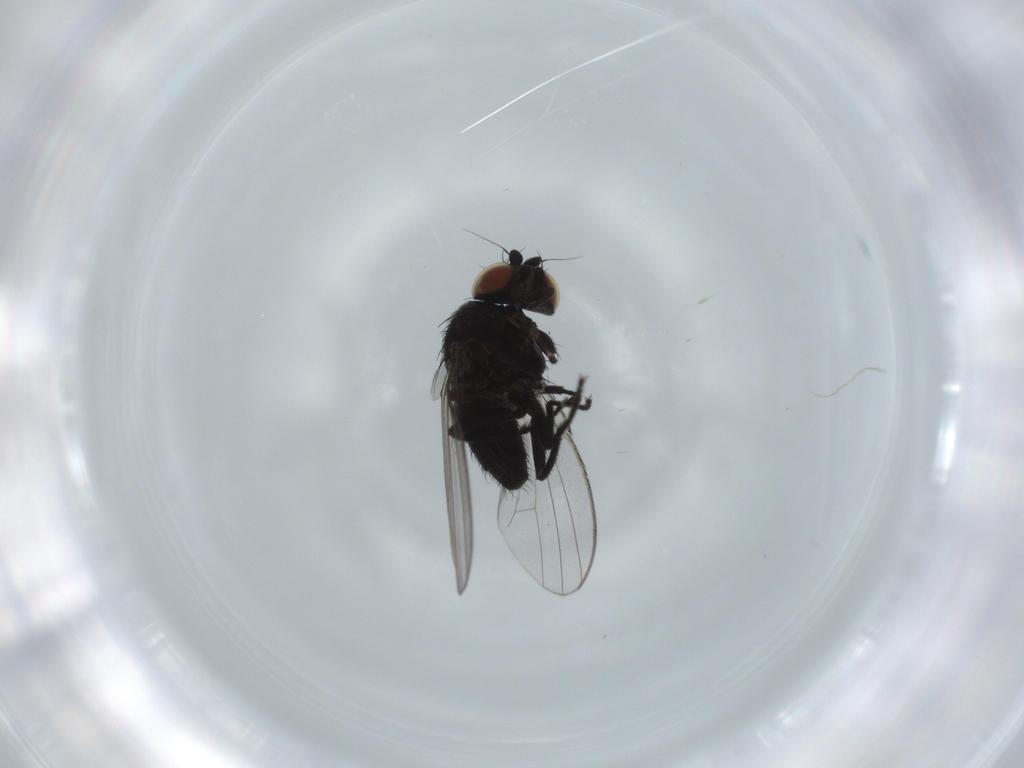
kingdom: Animalia
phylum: Arthropoda
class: Insecta
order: Diptera
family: Milichiidae
